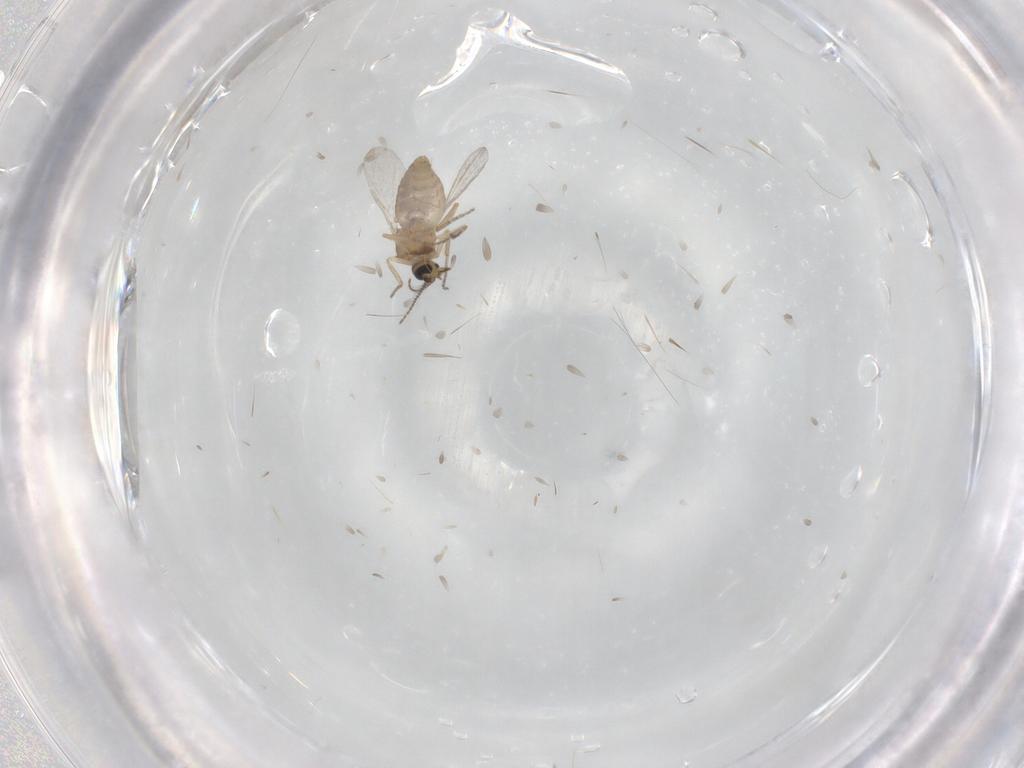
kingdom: Animalia
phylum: Arthropoda
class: Insecta
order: Diptera
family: Ceratopogonidae
